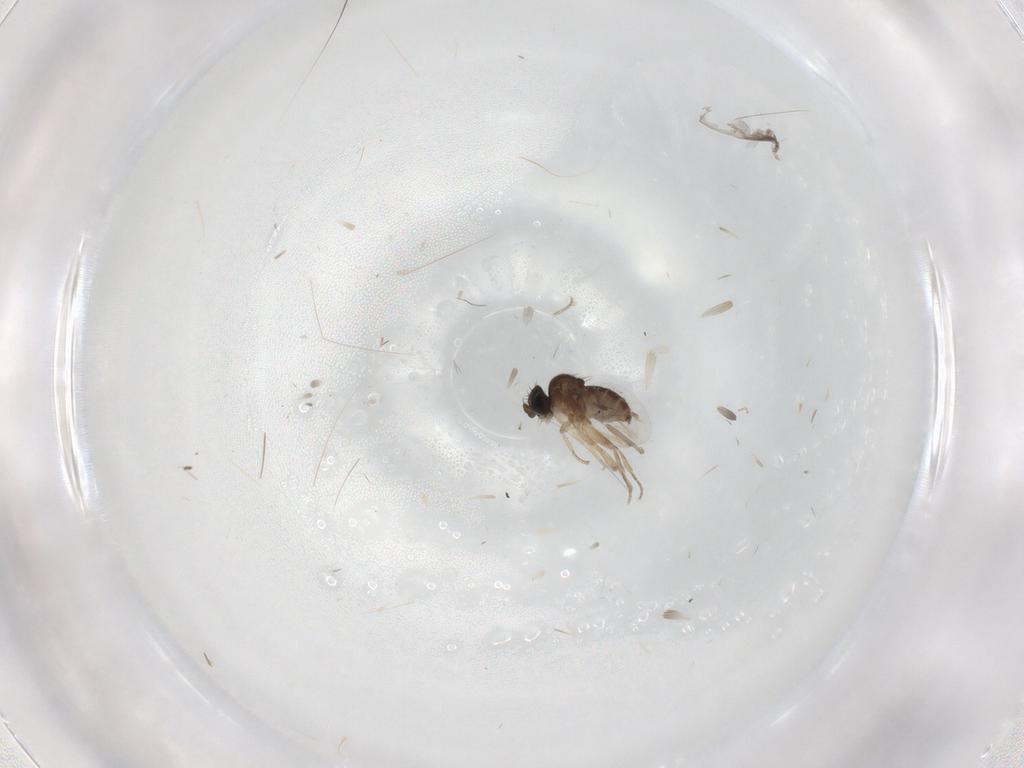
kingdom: Animalia
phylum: Arthropoda
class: Insecta
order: Diptera
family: Phoridae
